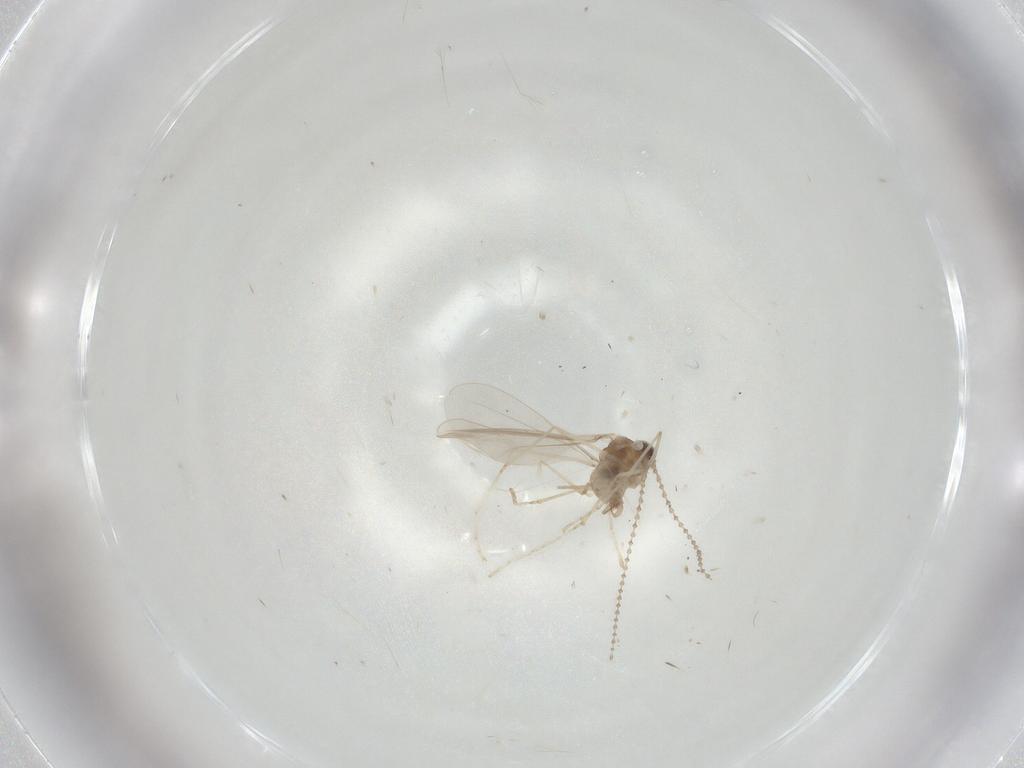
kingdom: Animalia
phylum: Arthropoda
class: Insecta
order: Diptera
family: Cecidomyiidae
